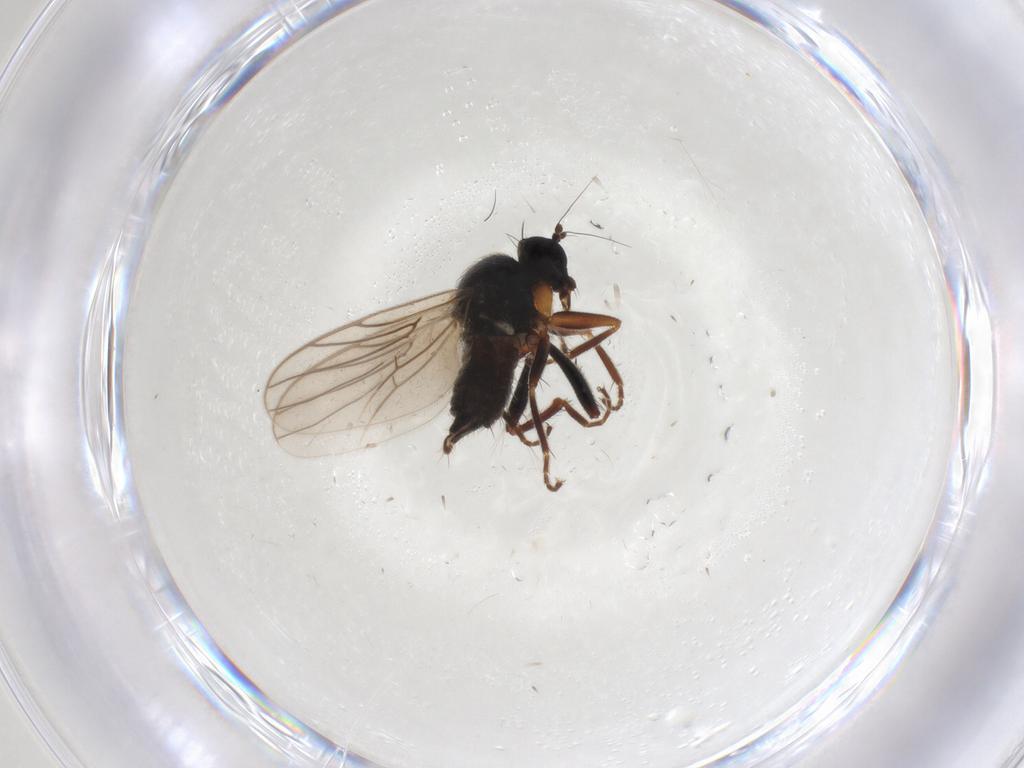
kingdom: Animalia
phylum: Arthropoda
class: Insecta
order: Diptera
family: Hybotidae
